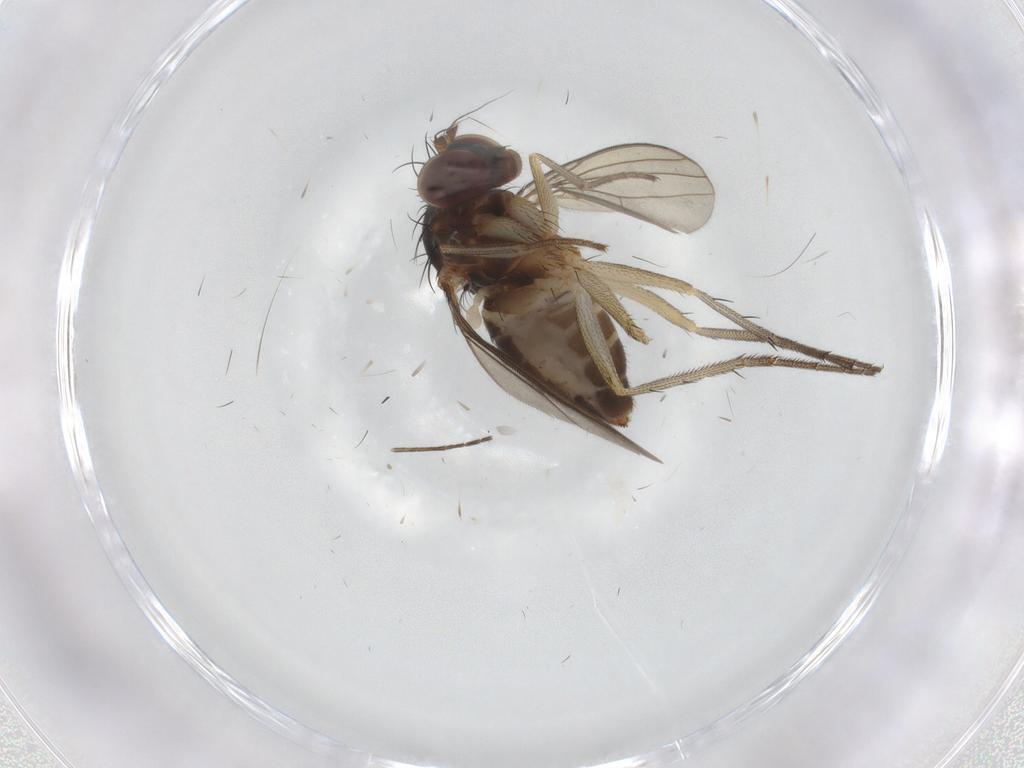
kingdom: Animalia
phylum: Arthropoda
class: Insecta
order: Diptera
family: Dolichopodidae
